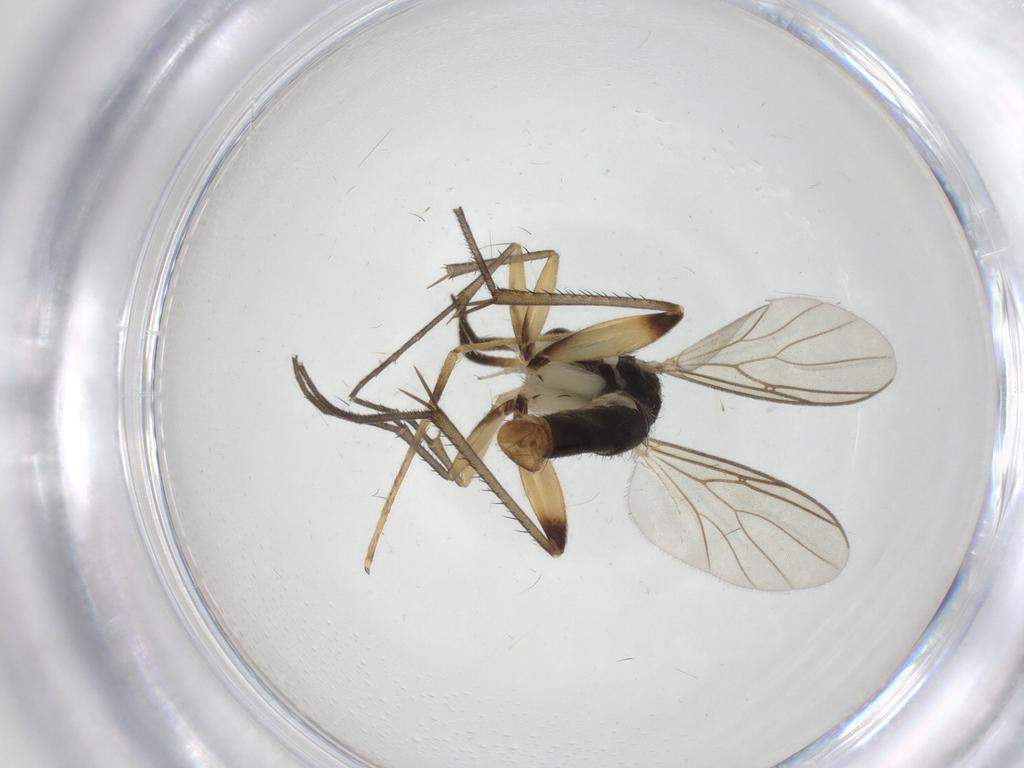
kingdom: Animalia
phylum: Arthropoda
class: Insecta
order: Diptera
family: Mycetophilidae
